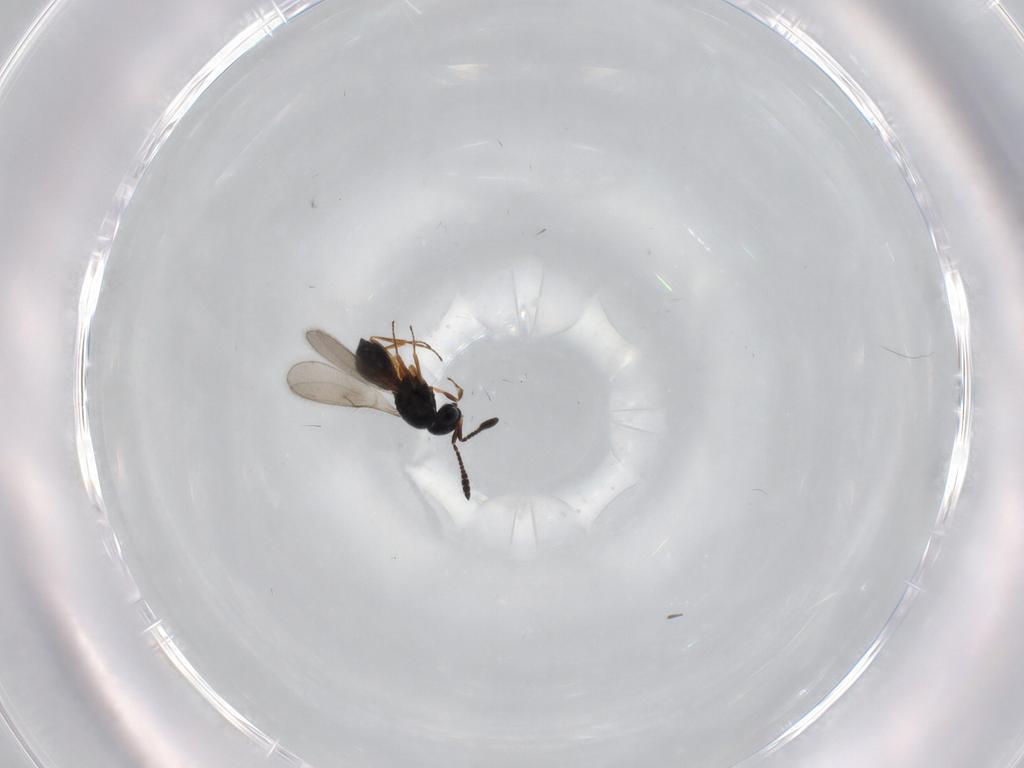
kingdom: Animalia
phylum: Arthropoda
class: Insecta
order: Hymenoptera
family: Scelionidae
